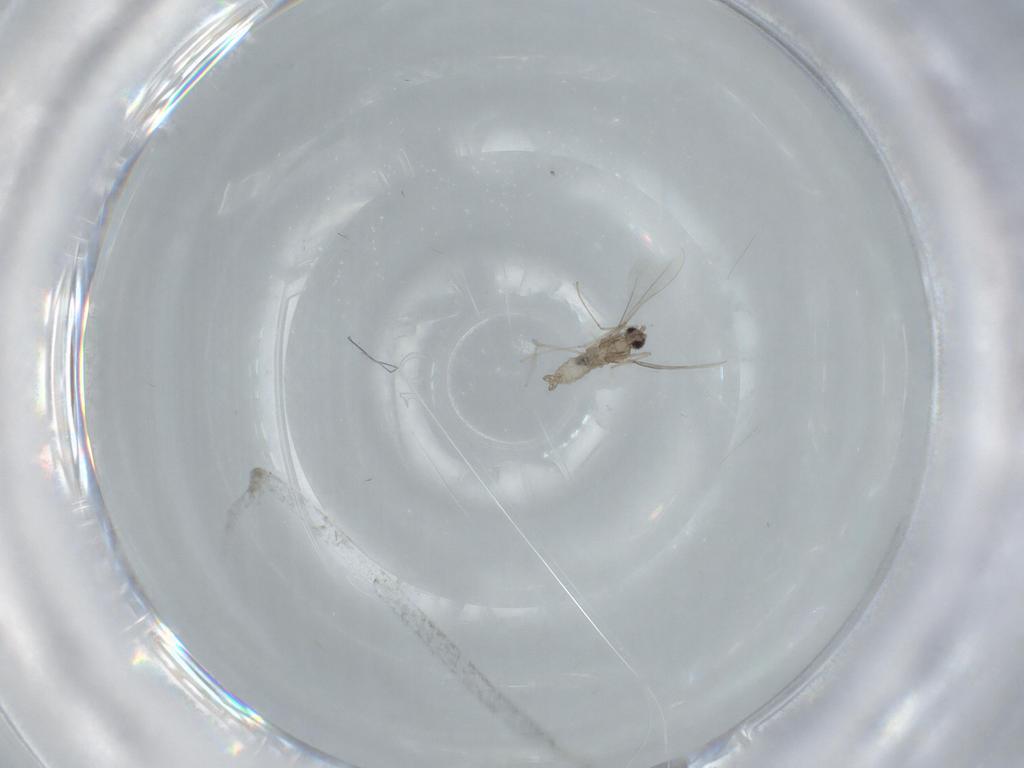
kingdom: Animalia
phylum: Arthropoda
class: Insecta
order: Diptera
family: Cecidomyiidae
